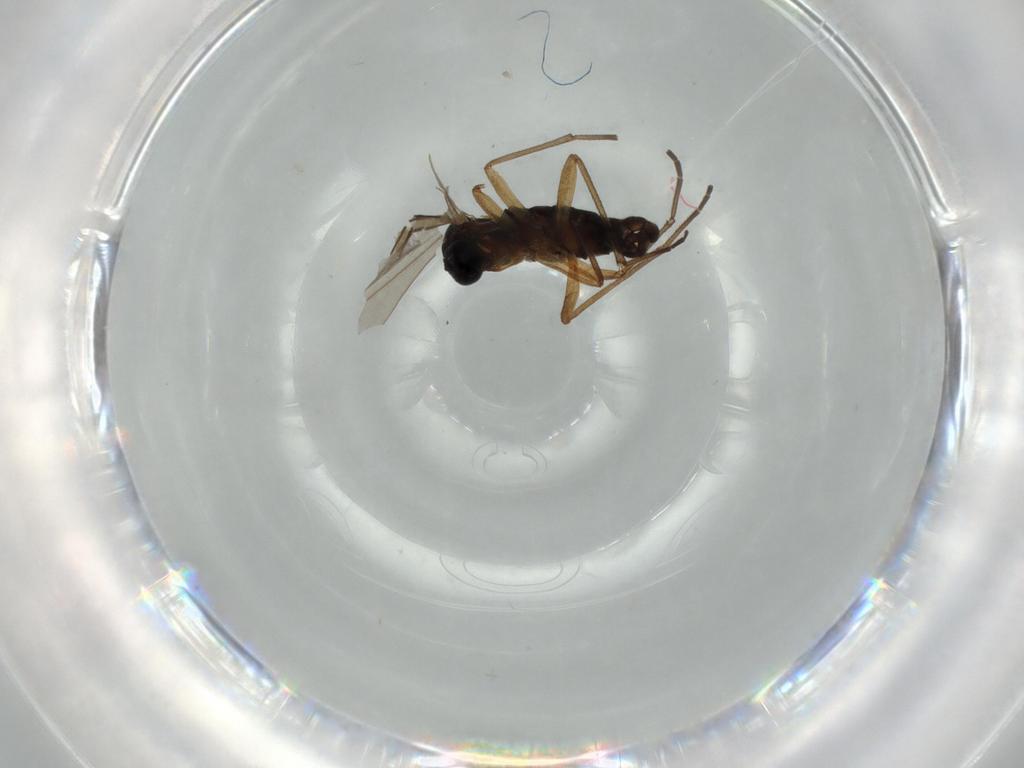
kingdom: Animalia
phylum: Arthropoda
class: Insecta
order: Diptera
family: Sciaridae
